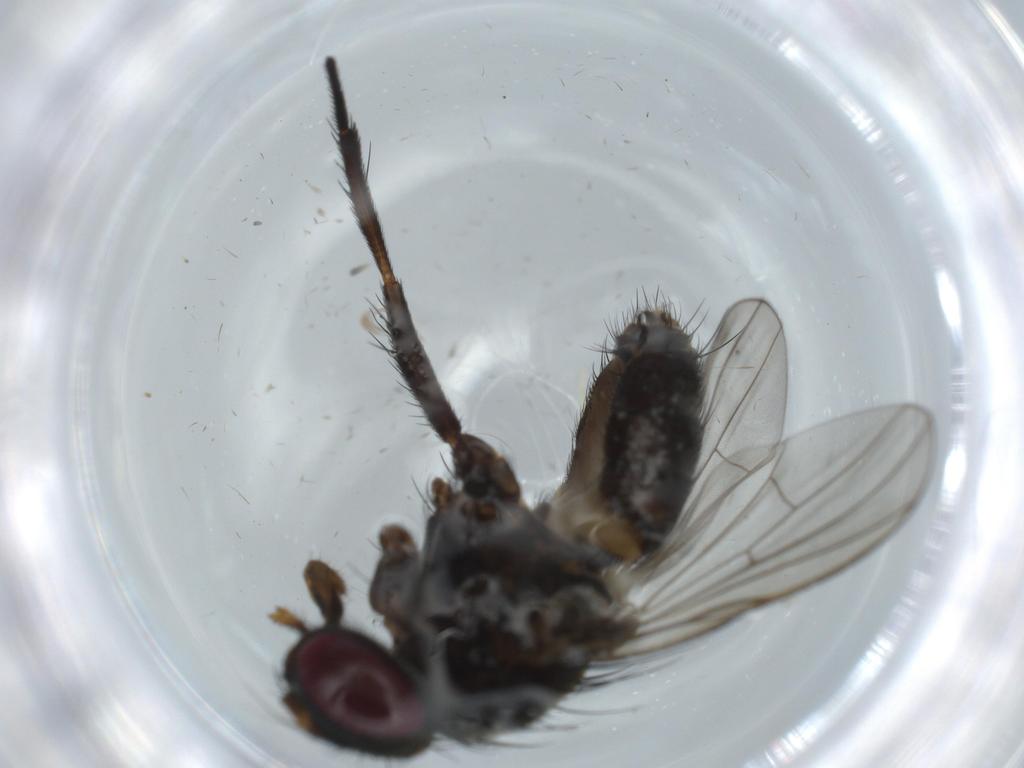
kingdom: Animalia
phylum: Arthropoda
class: Insecta
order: Diptera
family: Fannia
